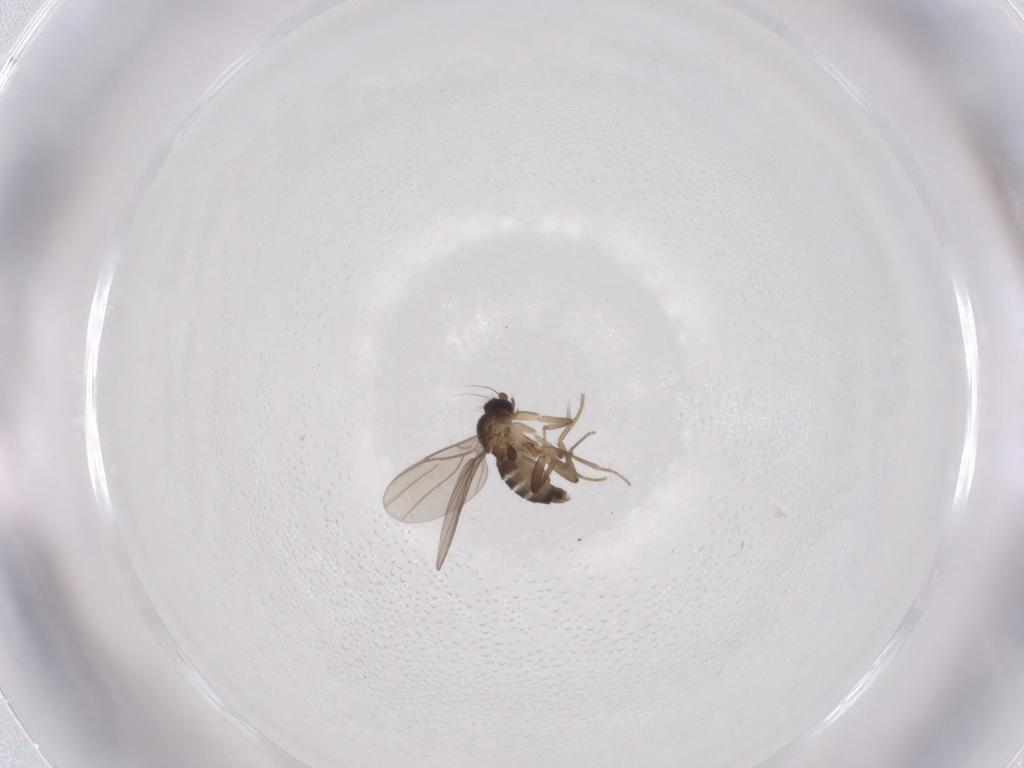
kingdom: Animalia
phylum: Arthropoda
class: Insecta
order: Diptera
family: Phoridae
